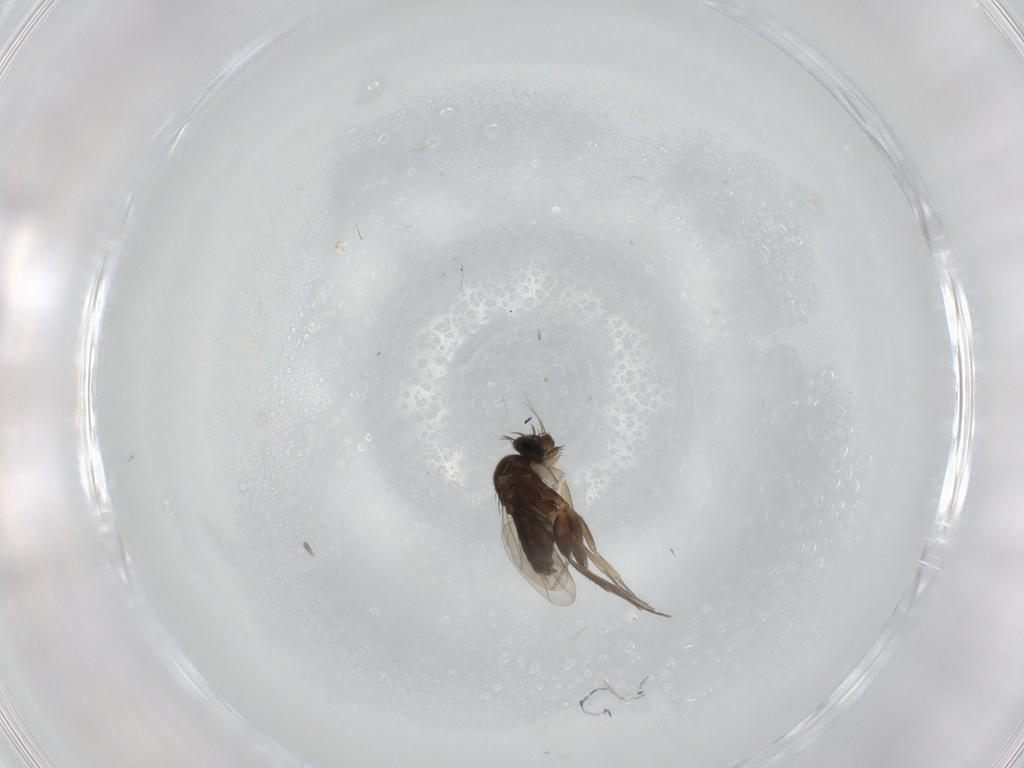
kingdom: Animalia
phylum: Arthropoda
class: Insecta
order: Diptera
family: Phoridae
